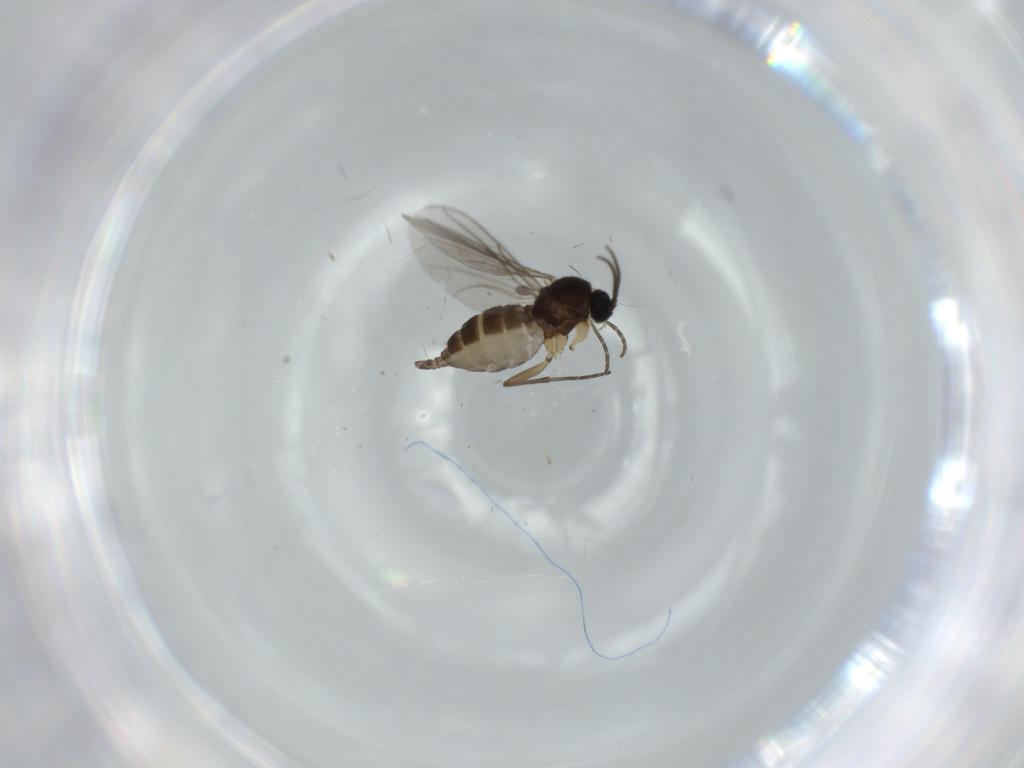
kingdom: Animalia
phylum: Arthropoda
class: Insecta
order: Diptera
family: Sciaridae
